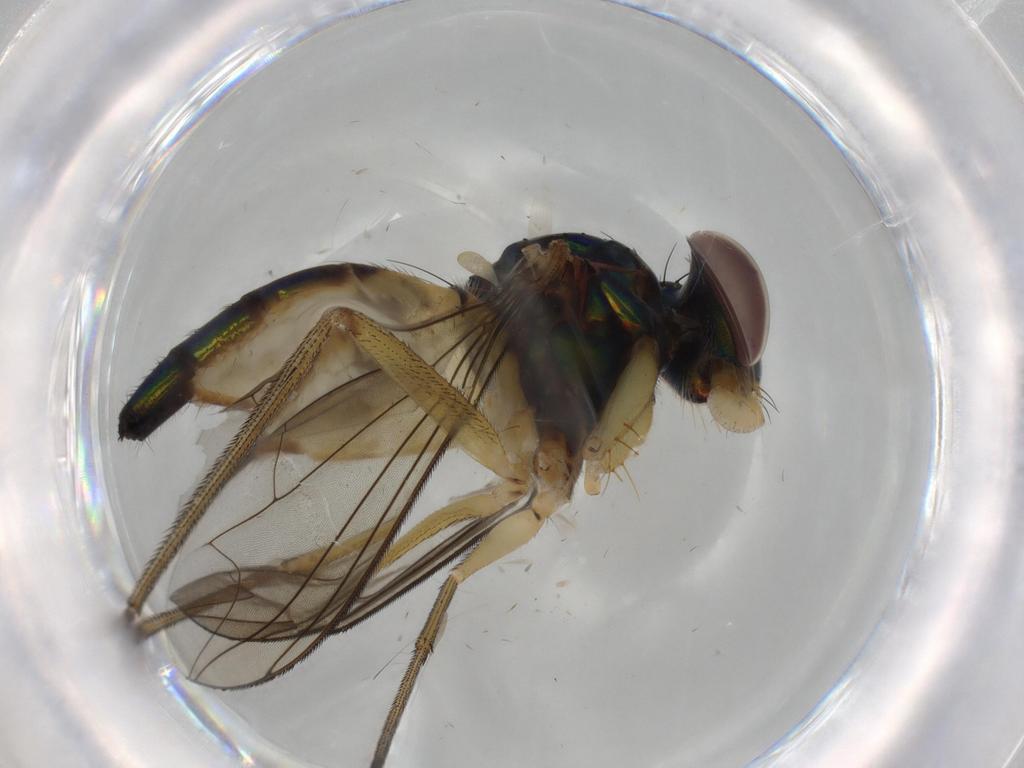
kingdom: Animalia
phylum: Arthropoda
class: Insecta
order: Diptera
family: Dolichopodidae
